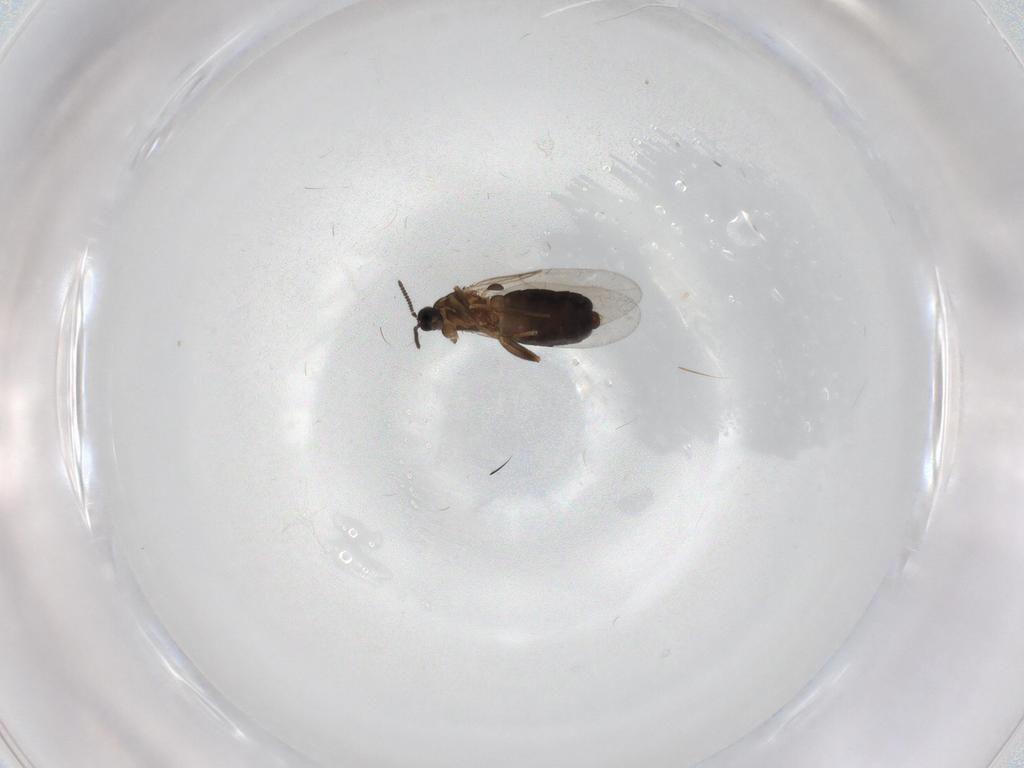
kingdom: Animalia
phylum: Arthropoda
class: Insecta
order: Diptera
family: Scatopsidae
